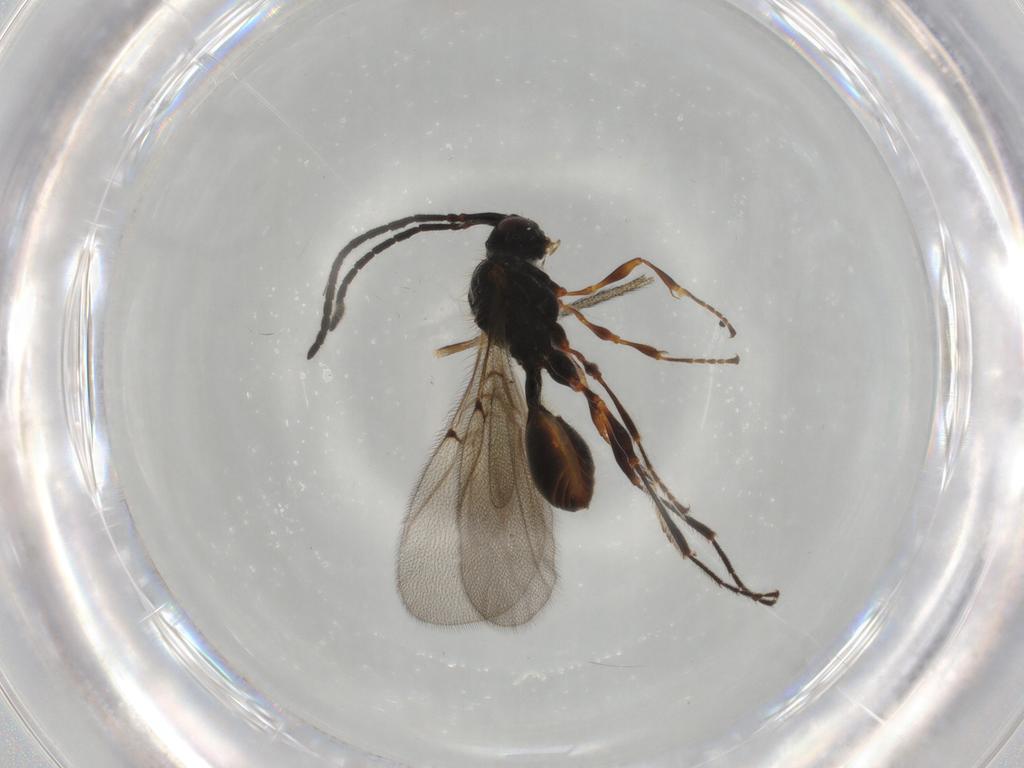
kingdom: Animalia
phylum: Arthropoda
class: Insecta
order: Hymenoptera
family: Diapriidae
